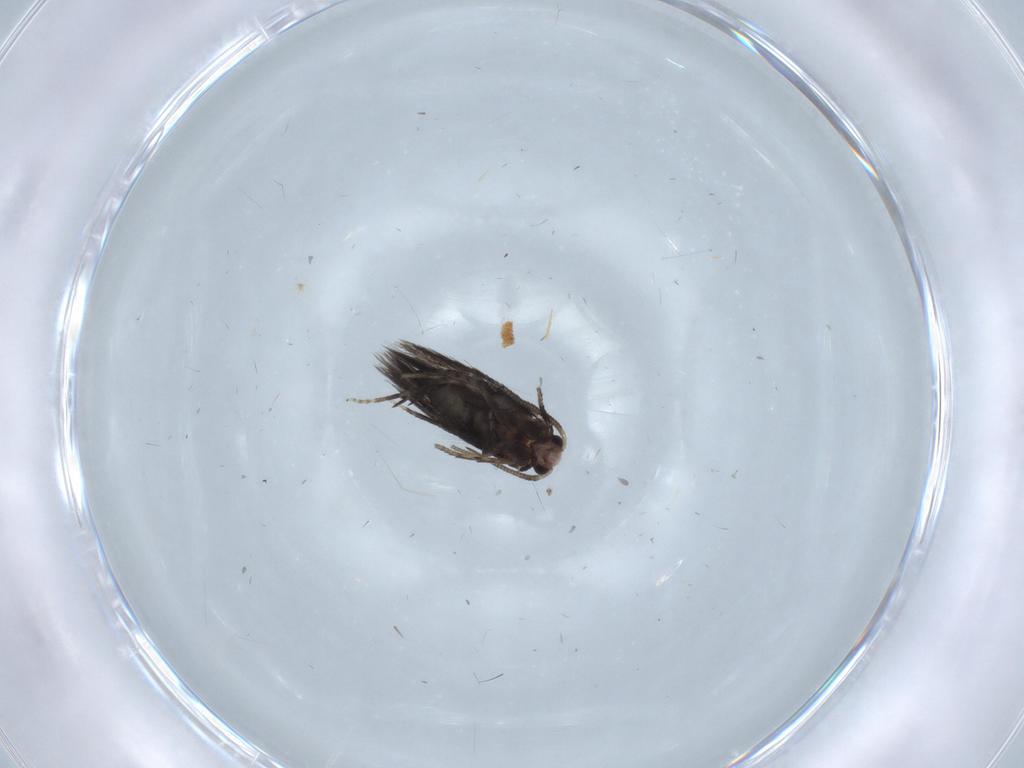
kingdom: Animalia
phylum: Arthropoda
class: Insecta
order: Lepidoptera
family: Nepticulidae
